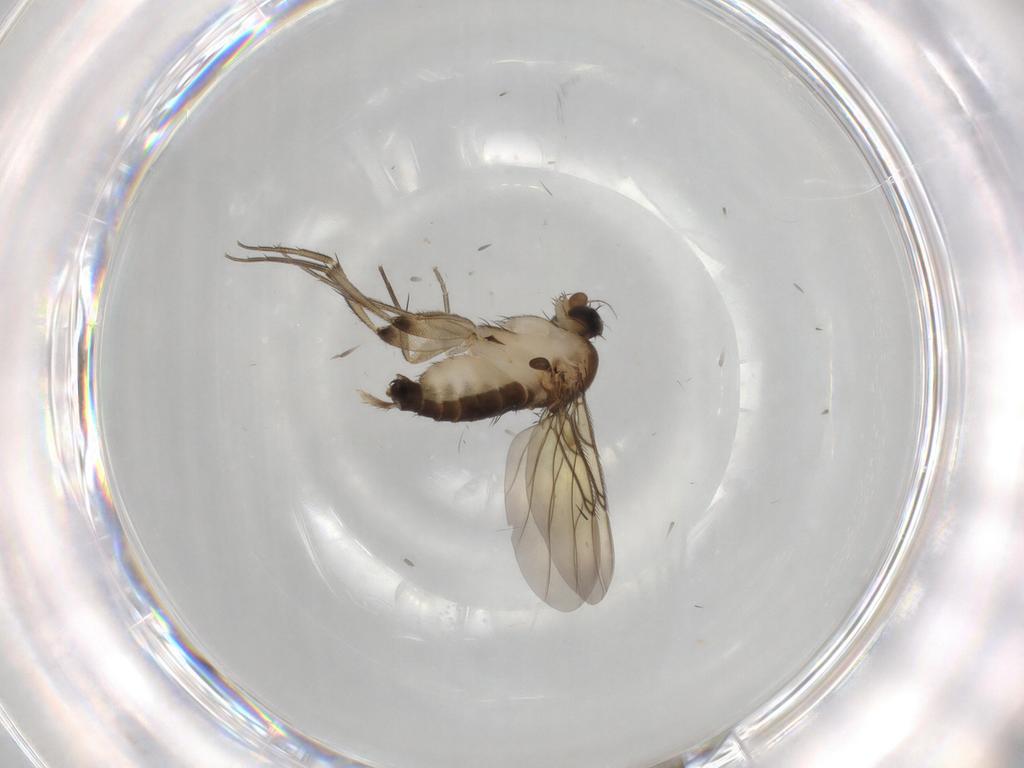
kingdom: Animalia
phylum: Arthropoda
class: Insecta
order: Diptera
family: Phoridae
